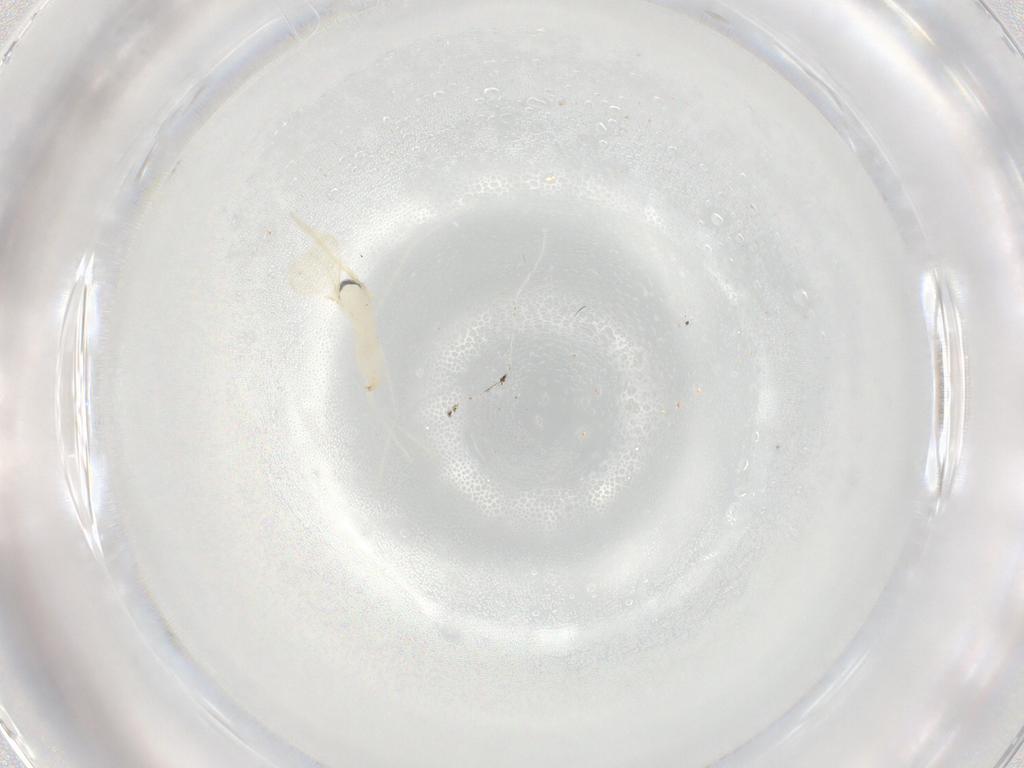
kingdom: Animalia
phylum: Arthropoda
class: Insecta
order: Diptera
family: Cecidomyiidae
